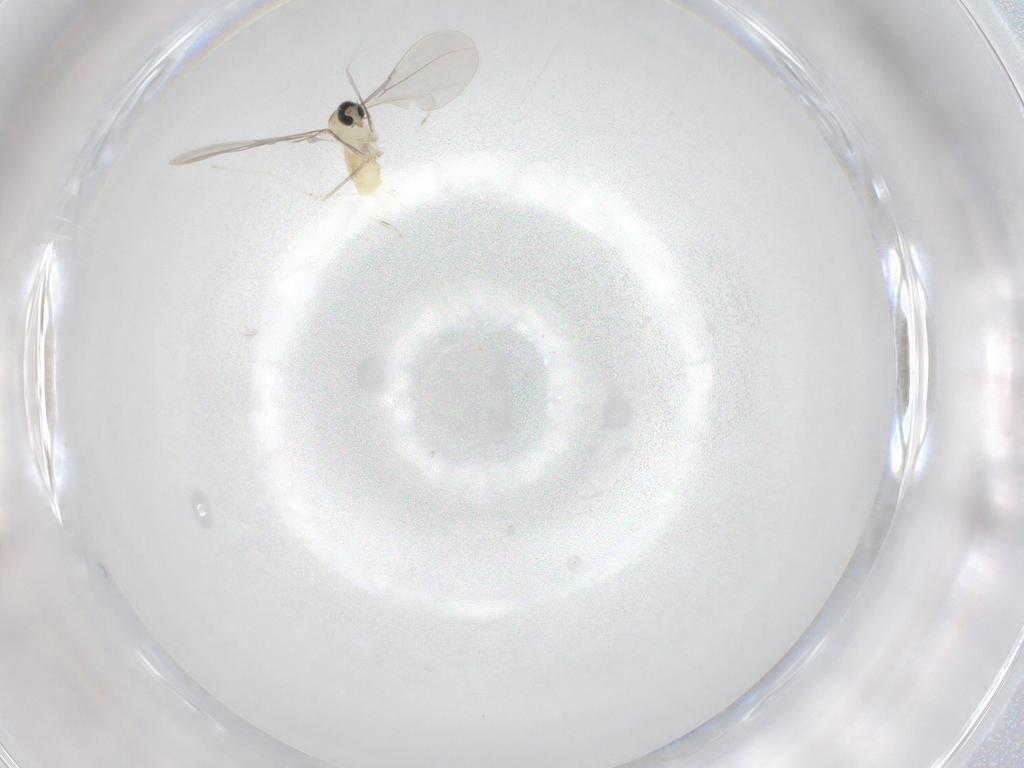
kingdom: Animalia
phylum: Arthropoda
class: Insecta
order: Diptera
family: Cecidomyiidae
